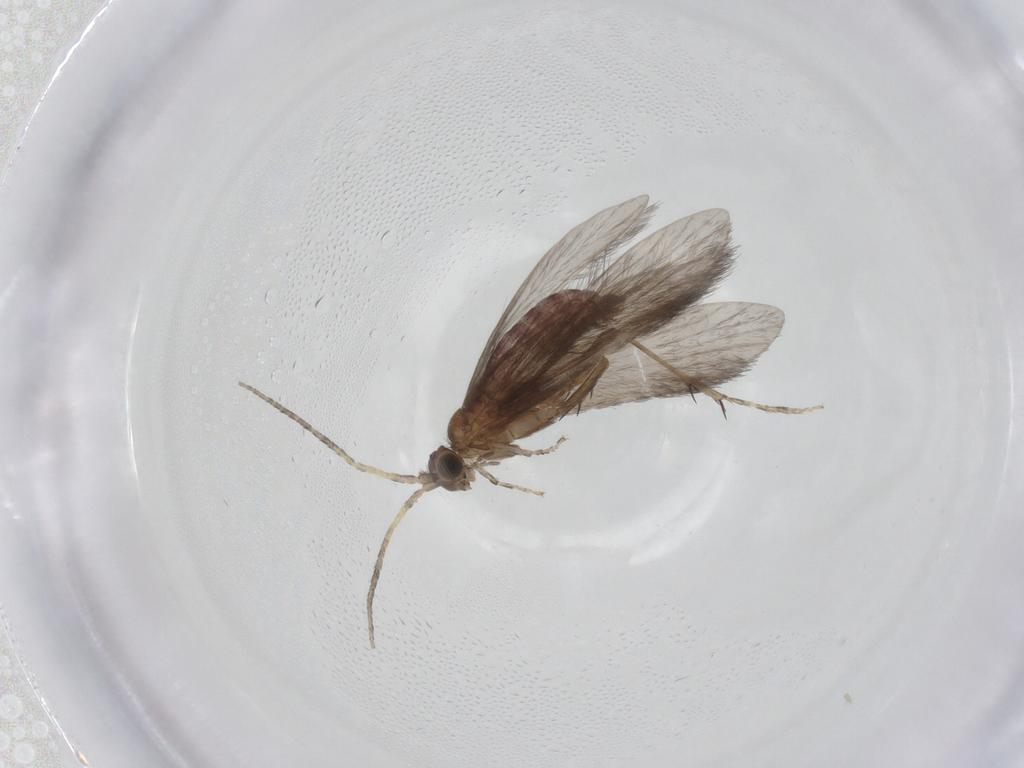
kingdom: Animalia
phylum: Arthropoda
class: Insecta
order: Trichoptera
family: Glossosomatidae
